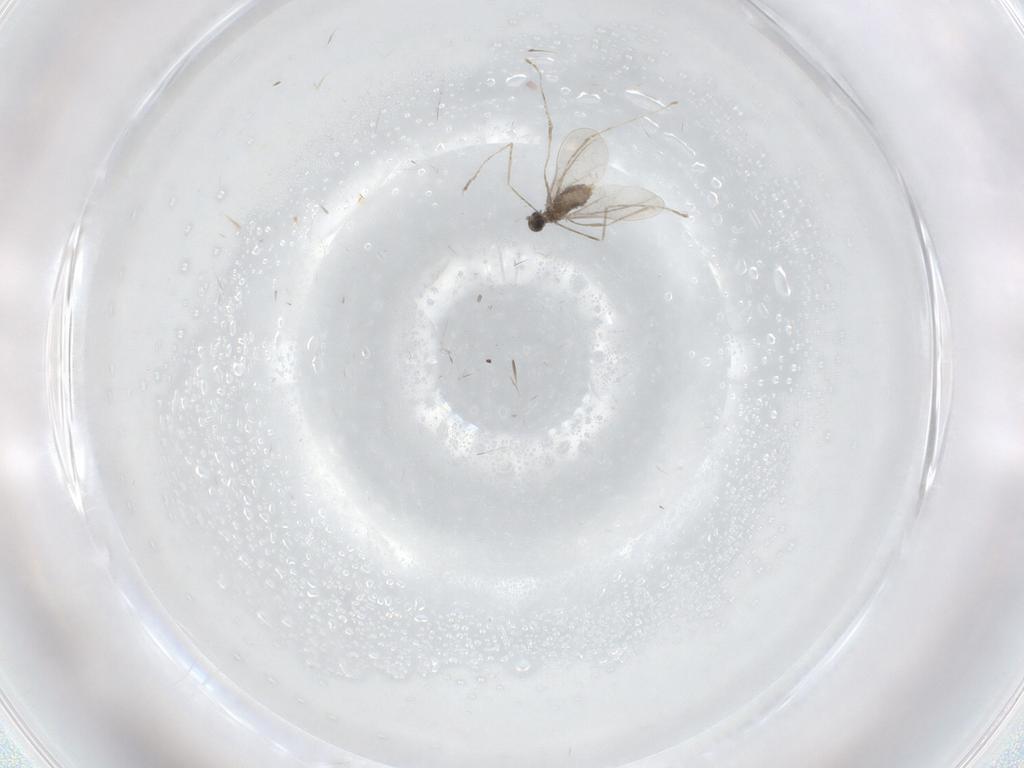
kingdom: Animalia
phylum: Arthropoda
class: Insecta
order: Diptera
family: Cecidomyiidae
